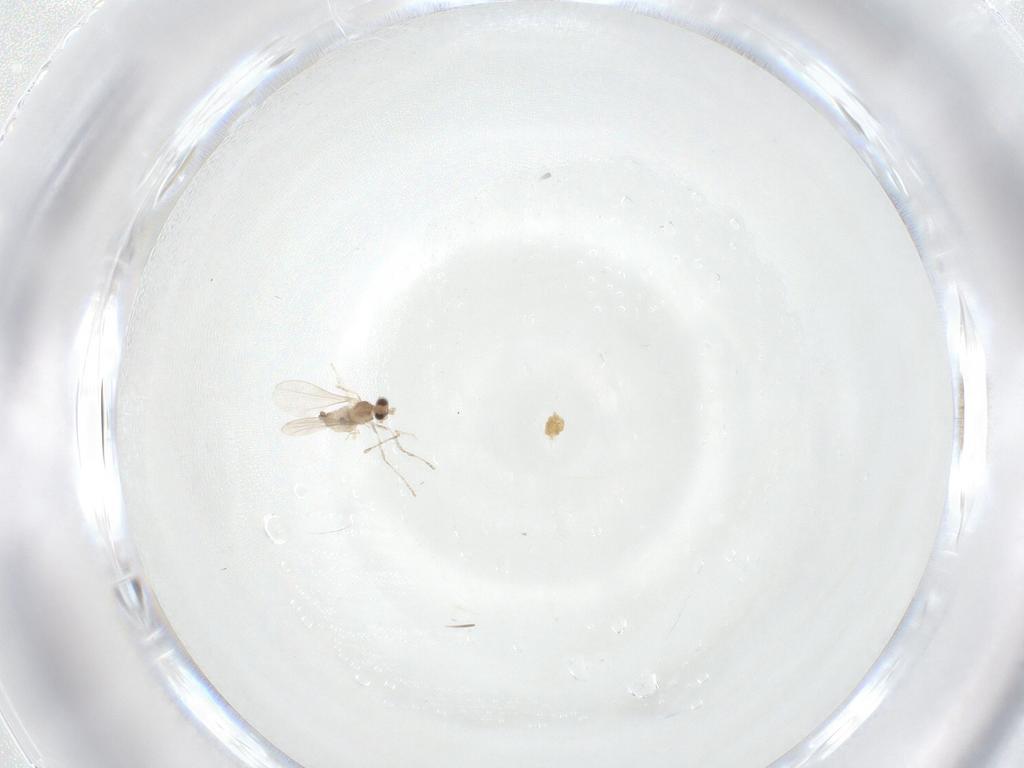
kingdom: Animalia
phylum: Arthropoda
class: Insecta
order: Diptera
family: Cecidomyiidae
